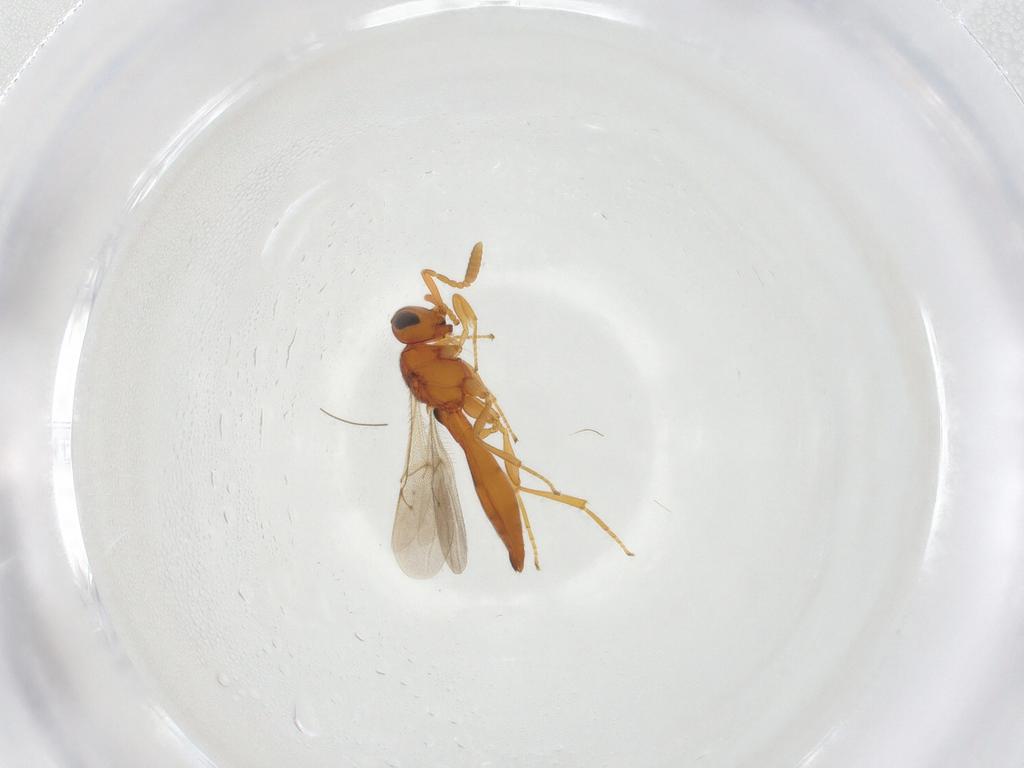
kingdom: Animalia
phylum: Arthropoda
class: Insecta
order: Hymenoptera
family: Scelionidae
